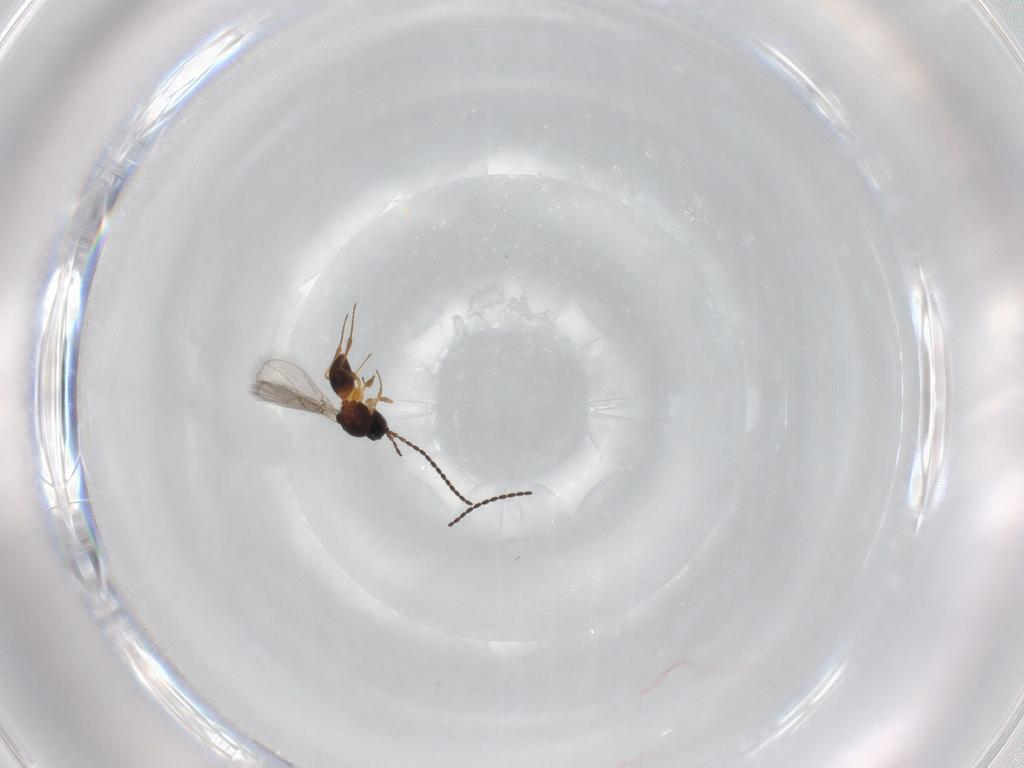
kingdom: Animalia
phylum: Arthropoda
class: Insecta
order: Hymenoptera
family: Figitidae
